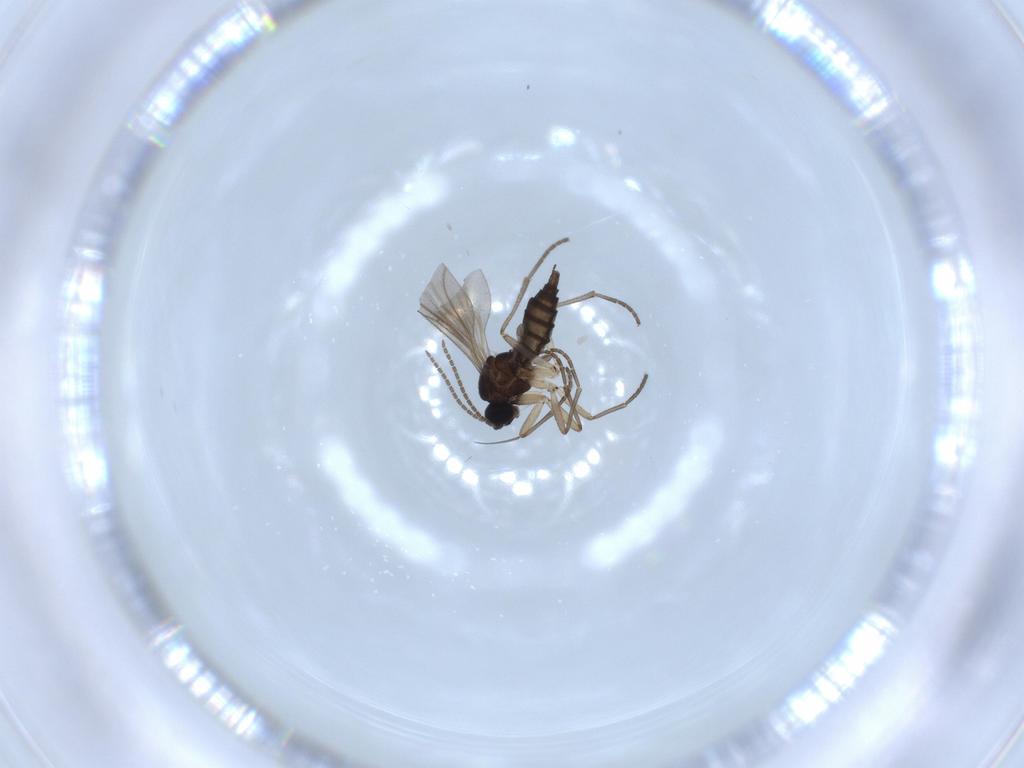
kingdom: Animalia
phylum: Arthropoda
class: Insecta
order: Diptera
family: Sciaridae
